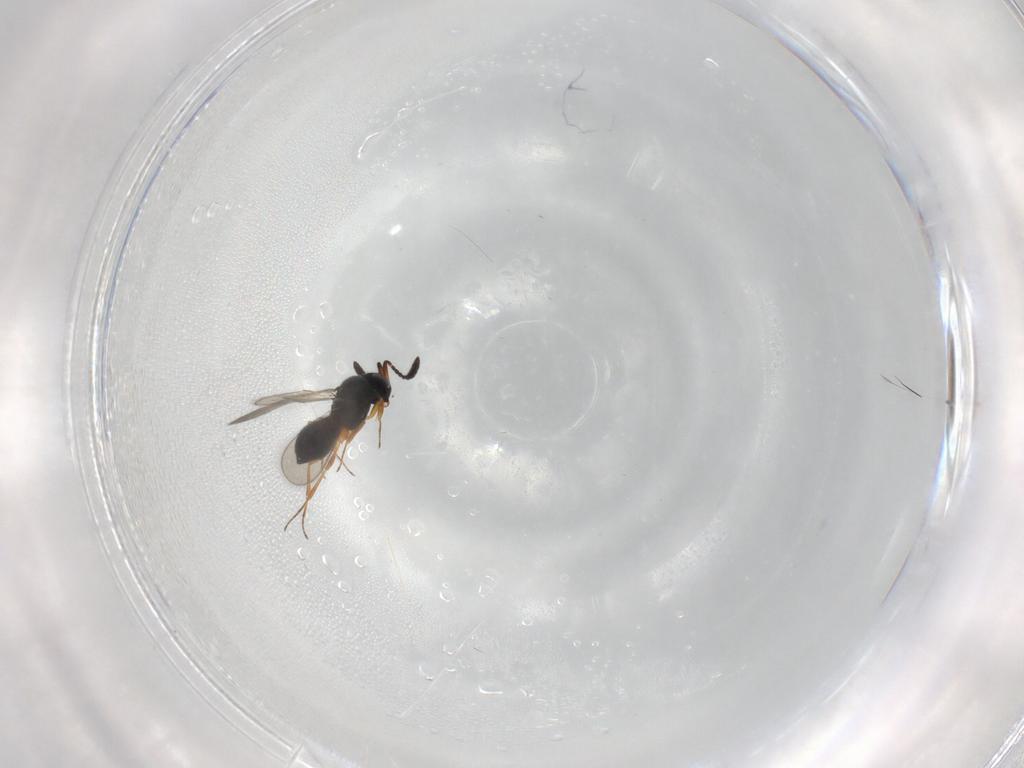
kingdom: Animalia
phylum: Arthropoda
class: Insecta
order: Hymenoptera
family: Scelionidae
